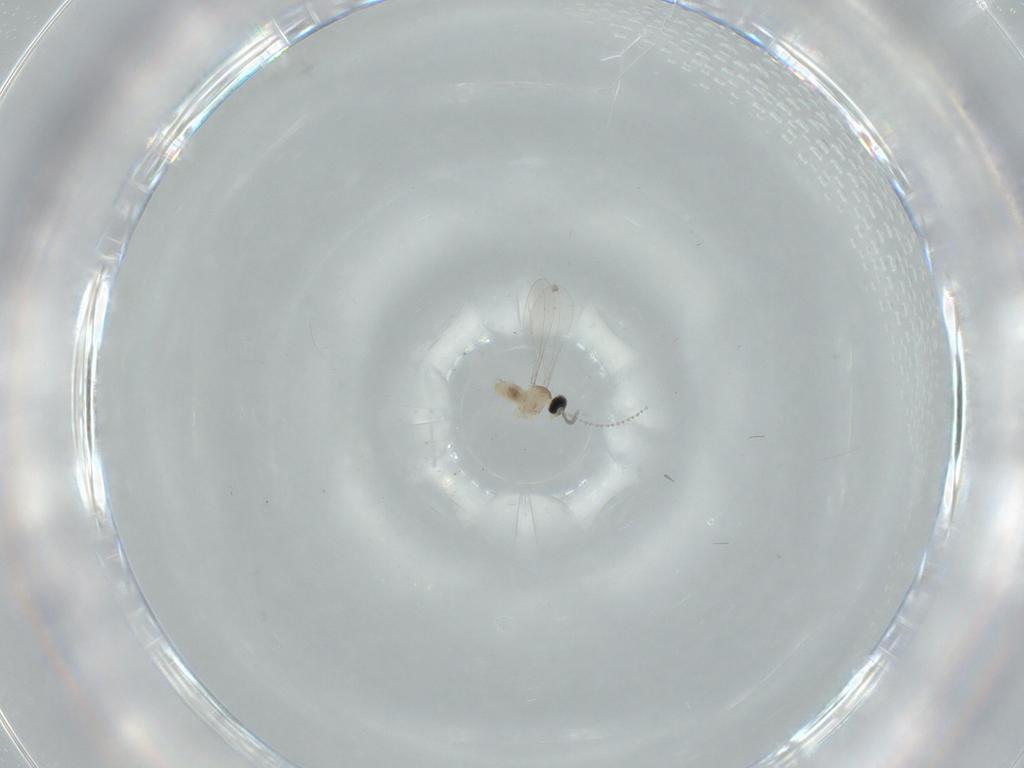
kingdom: Animalia
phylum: Arthropoda
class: Insecta
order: Diptera
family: Cecidomyiidae
